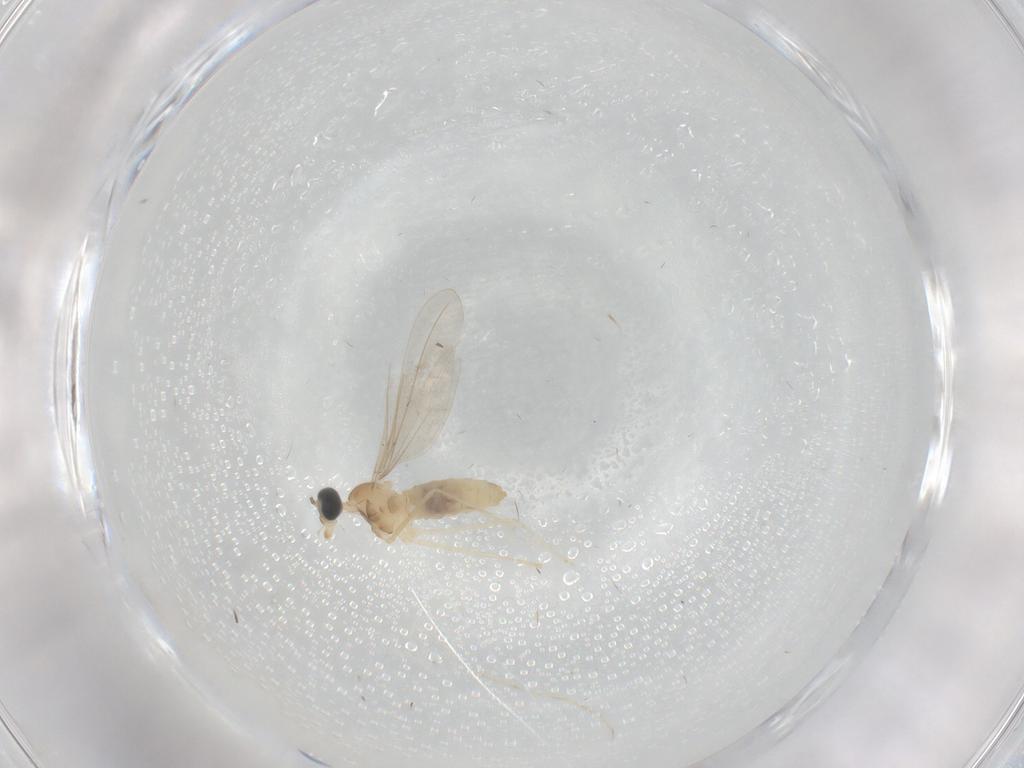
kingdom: Animalia
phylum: Arthropoda
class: Insecta
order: Diptera
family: Cecidomyiidae
